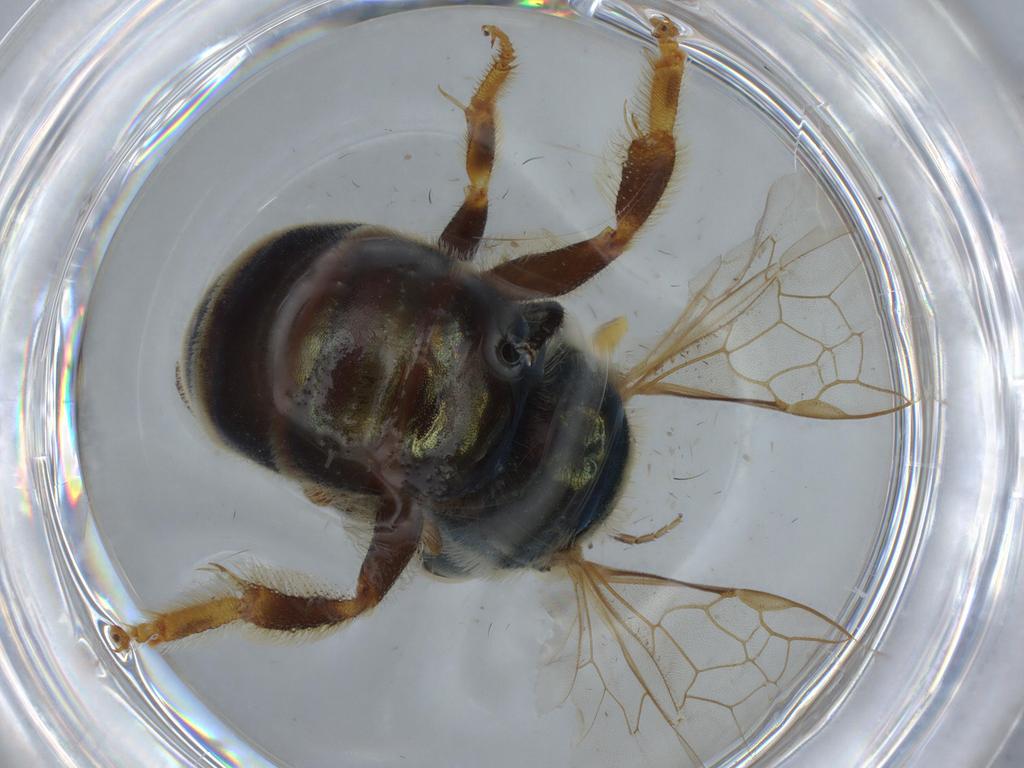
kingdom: Animalia
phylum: Arthropoda
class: Insecta
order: Hymenoptera
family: Halictidae
